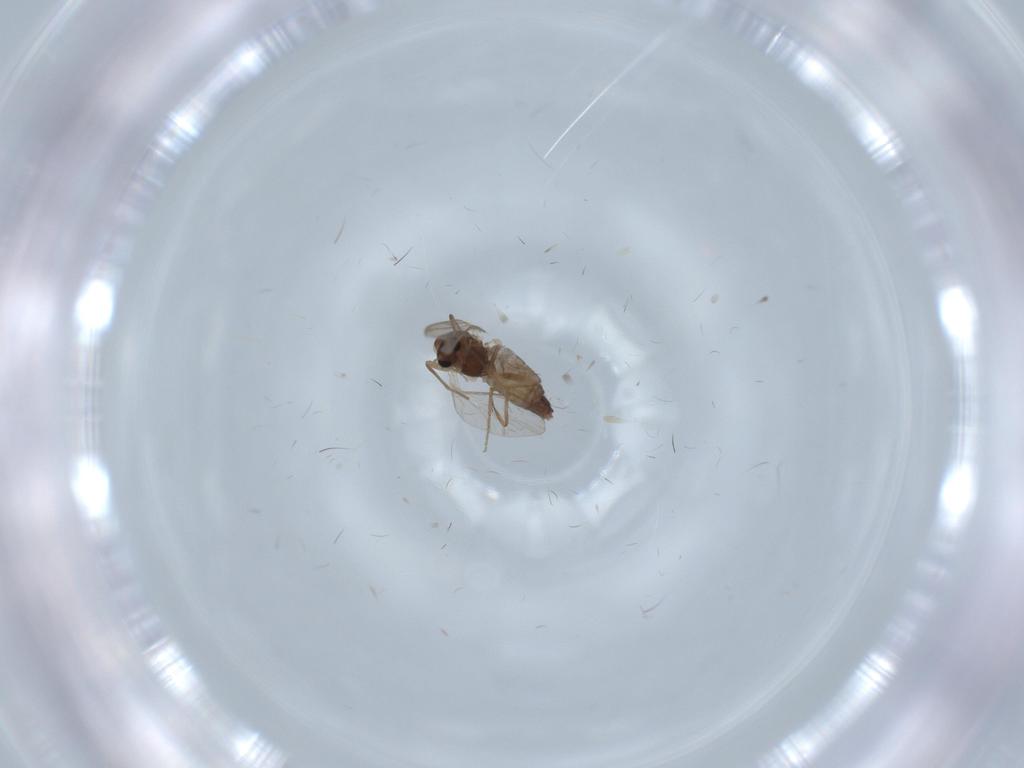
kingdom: Animalia
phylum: Arthropoda
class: Insecta
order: Diptera
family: Chironomidae
